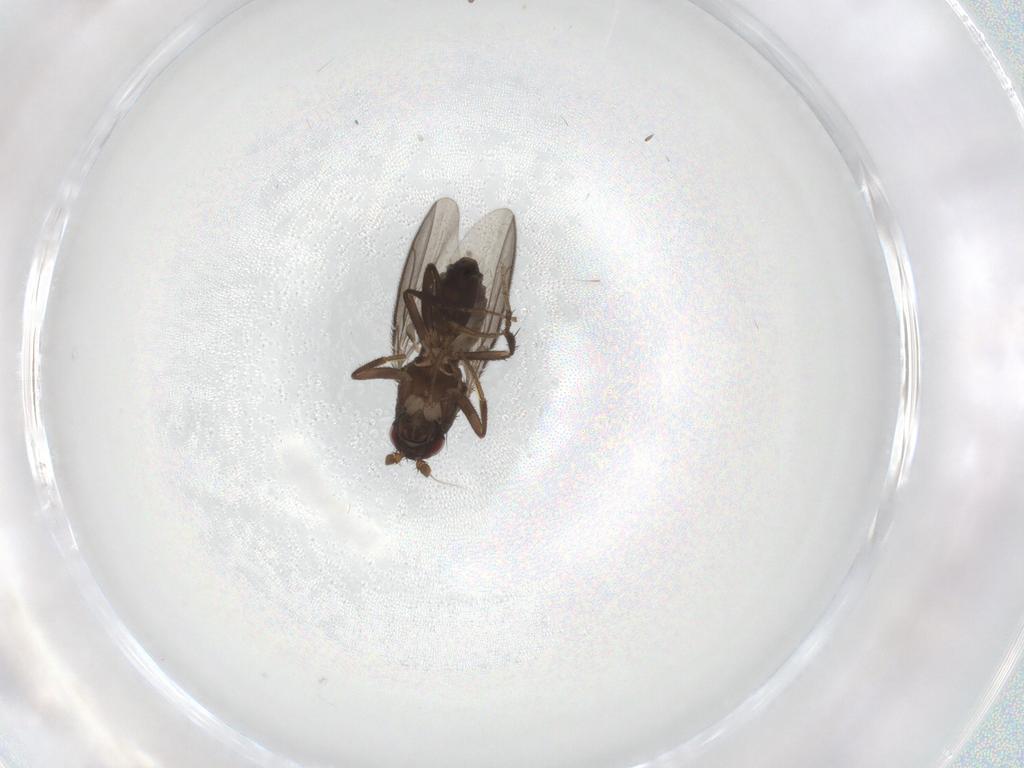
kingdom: Animalia
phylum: Arthropoda
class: Insecta
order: Diptera
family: Sphaeroceridae
